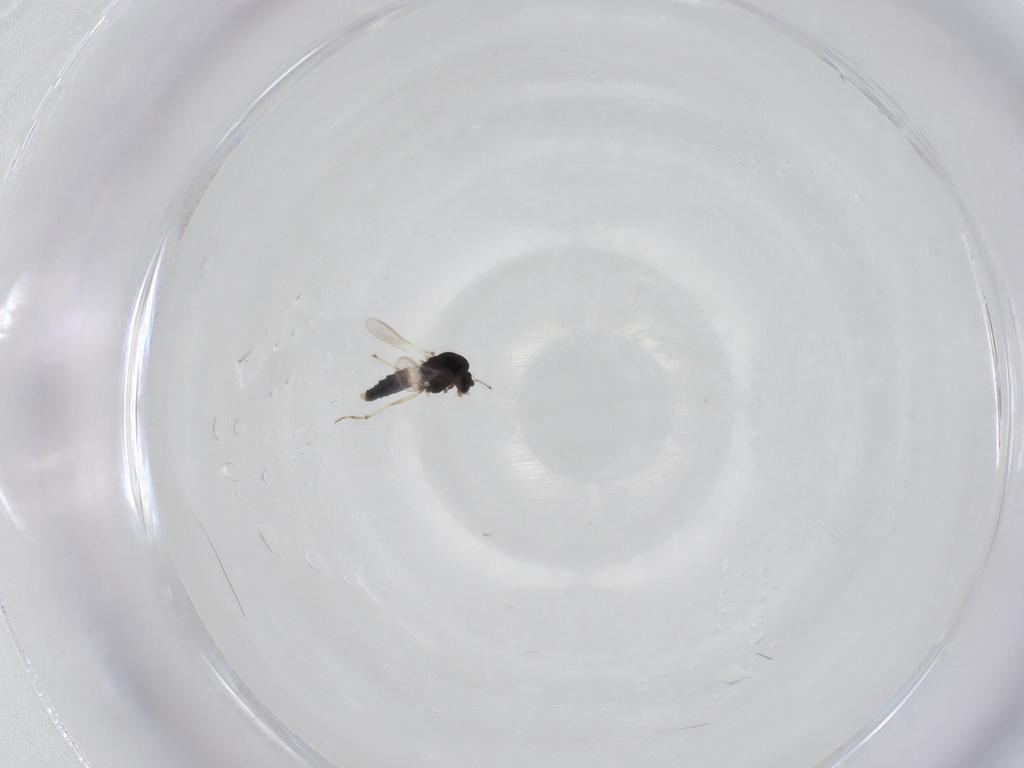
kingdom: Animalia
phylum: Arthropoda
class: Insecta
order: Diptera
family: Chironomidae
